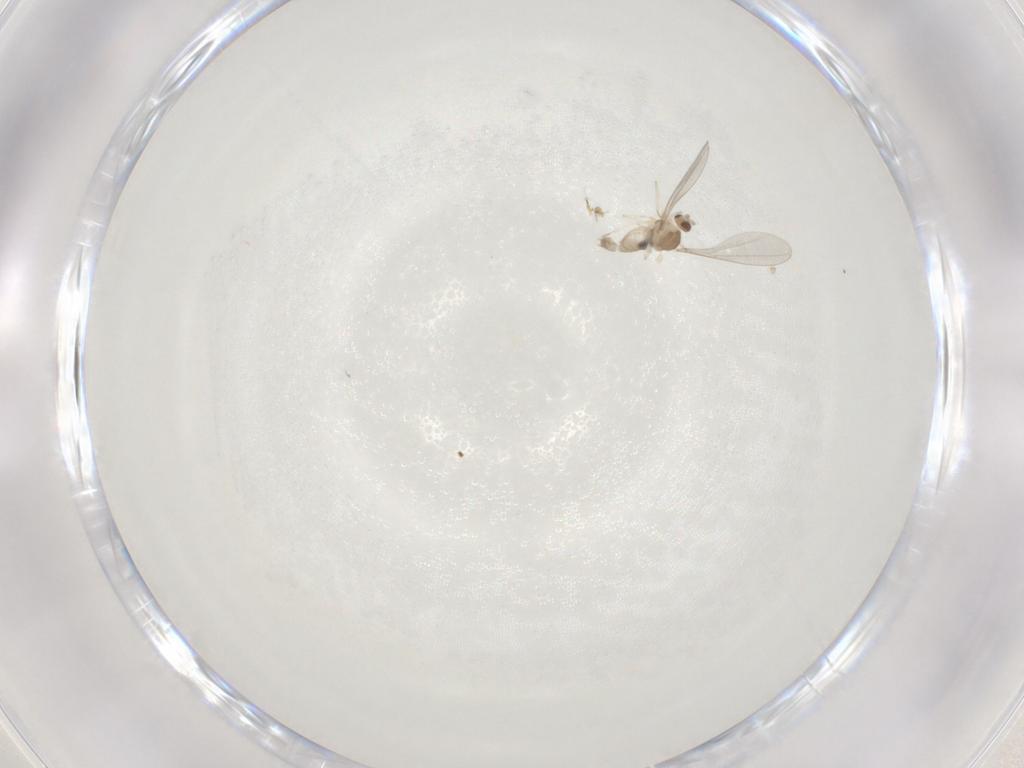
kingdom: Animalia
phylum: Arthropoda
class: Insecta
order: Diptera
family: Cecidomyiidae
